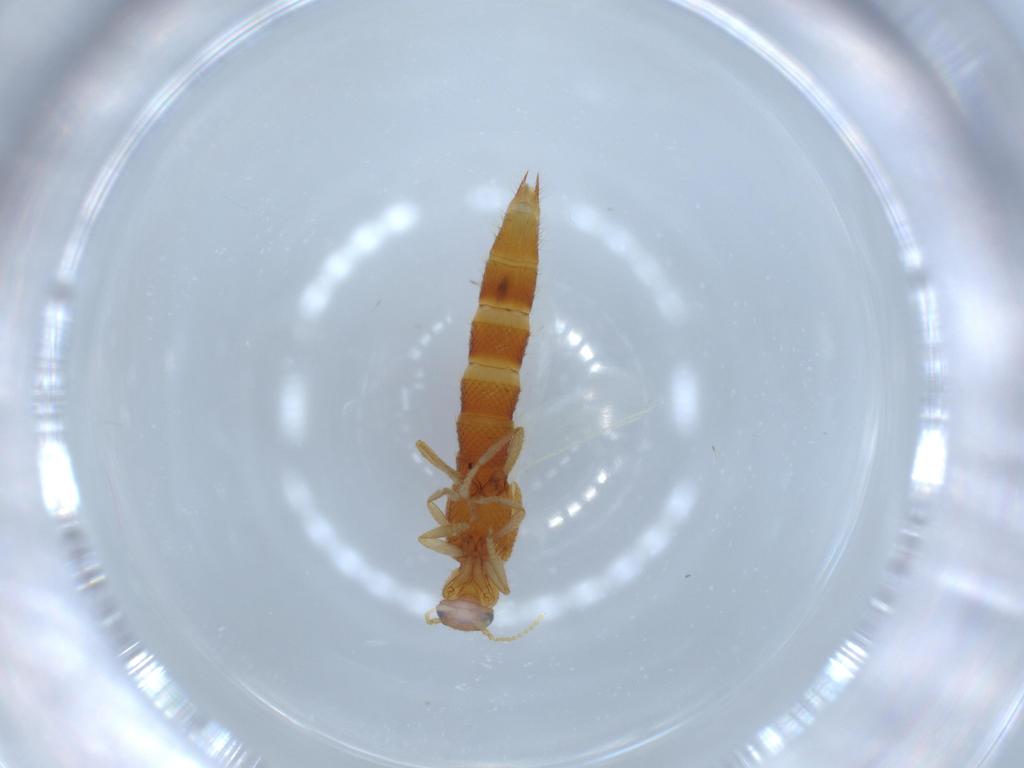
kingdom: Animalia
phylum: Arthropoda
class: Insecta
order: Coleoptera
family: Staphylinidae
